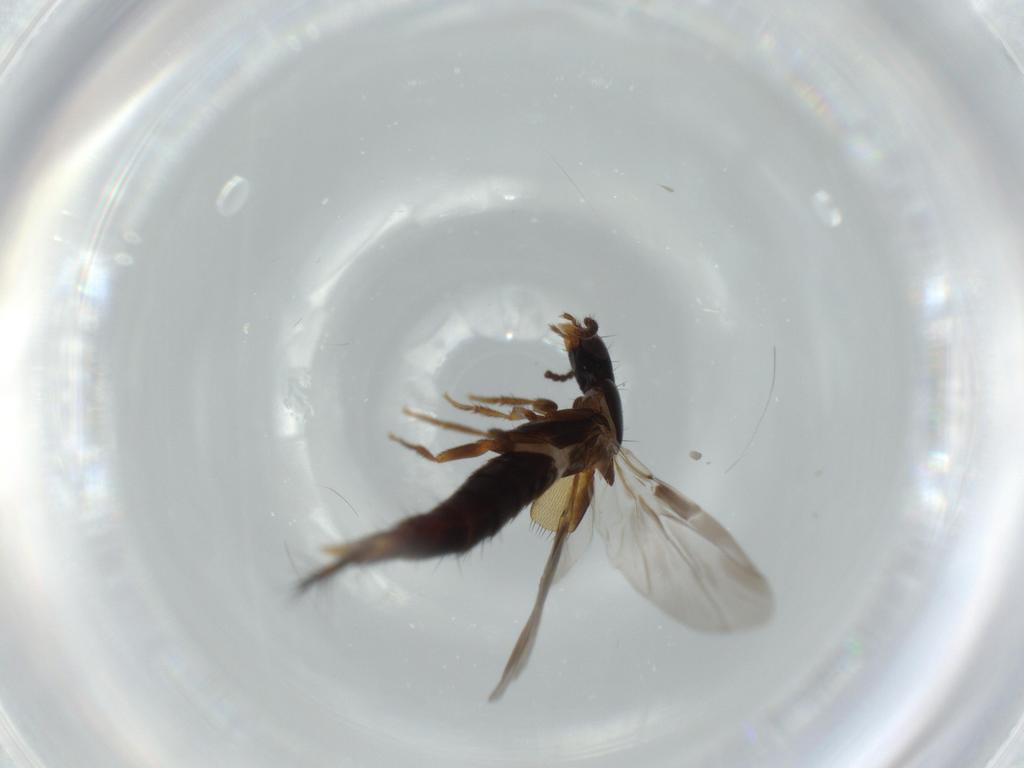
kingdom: Animalia
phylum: Arthropoda
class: Insecta
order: Coleoptera
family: Staphylinidae
